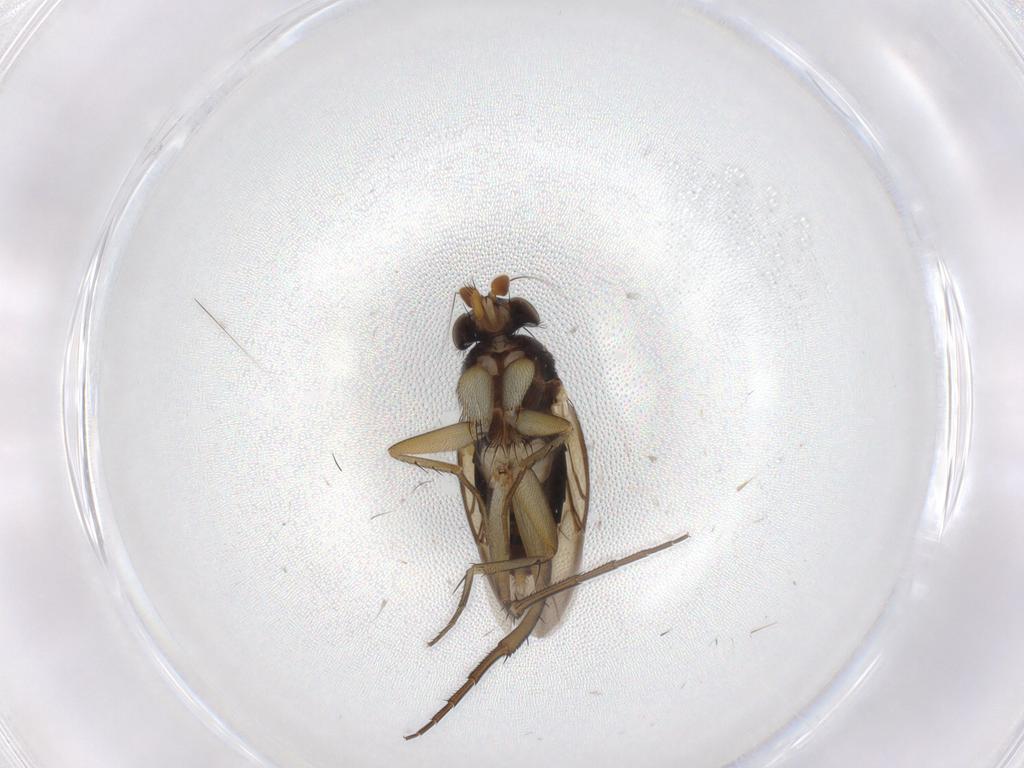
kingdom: Animalia
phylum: Arthropoda
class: Insecta
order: Diptera
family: Phoridae
